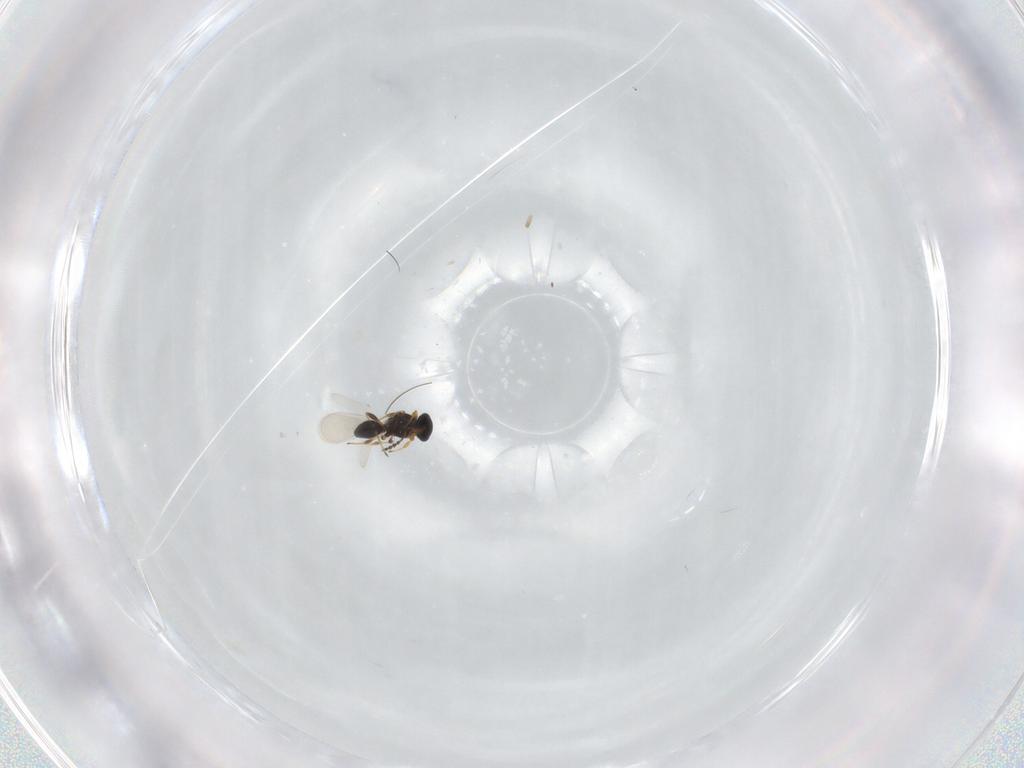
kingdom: Animalia
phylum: Arthropoda
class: Insecta
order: Hymenoptera
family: Platygastridae
